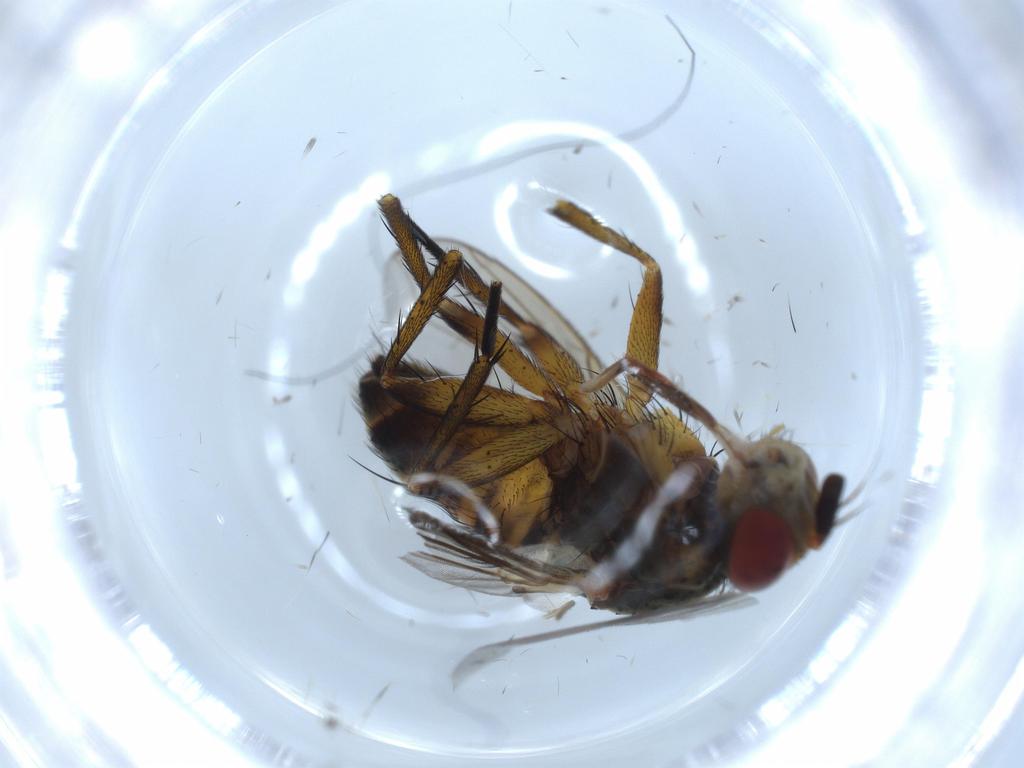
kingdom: Animalia
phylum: Arthropoda
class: Insecta
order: Diptera
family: Tachinidae
